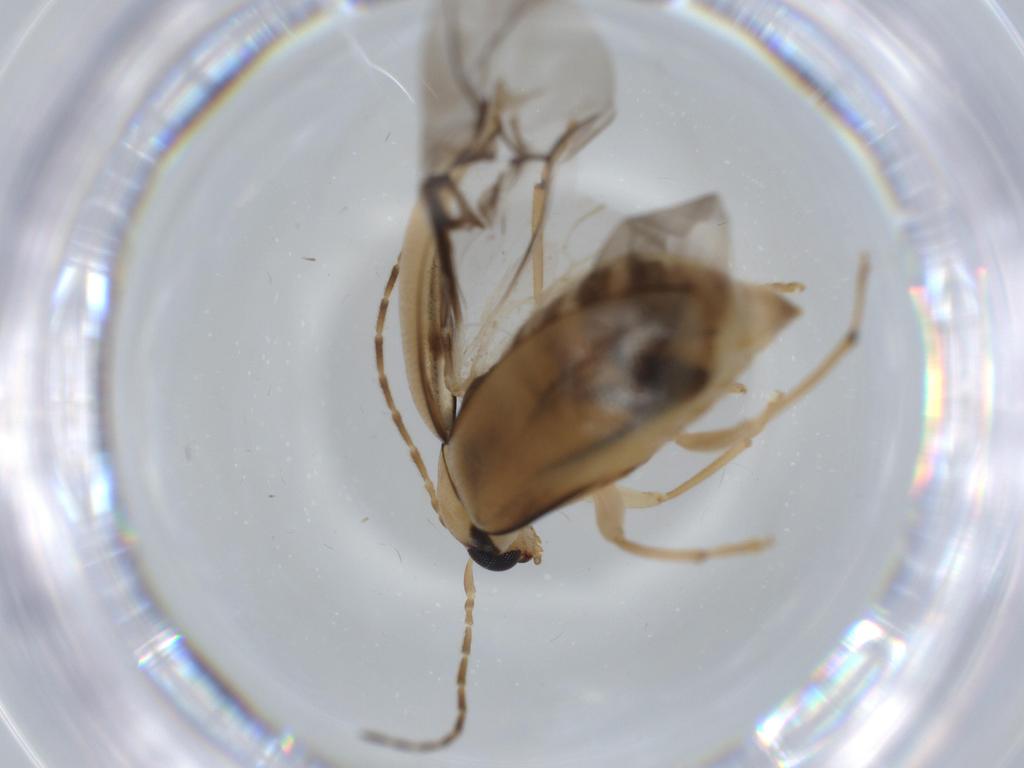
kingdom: Animalia
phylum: Arthropoda
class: Insecta
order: Coleoptera
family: Chrysomelidae
